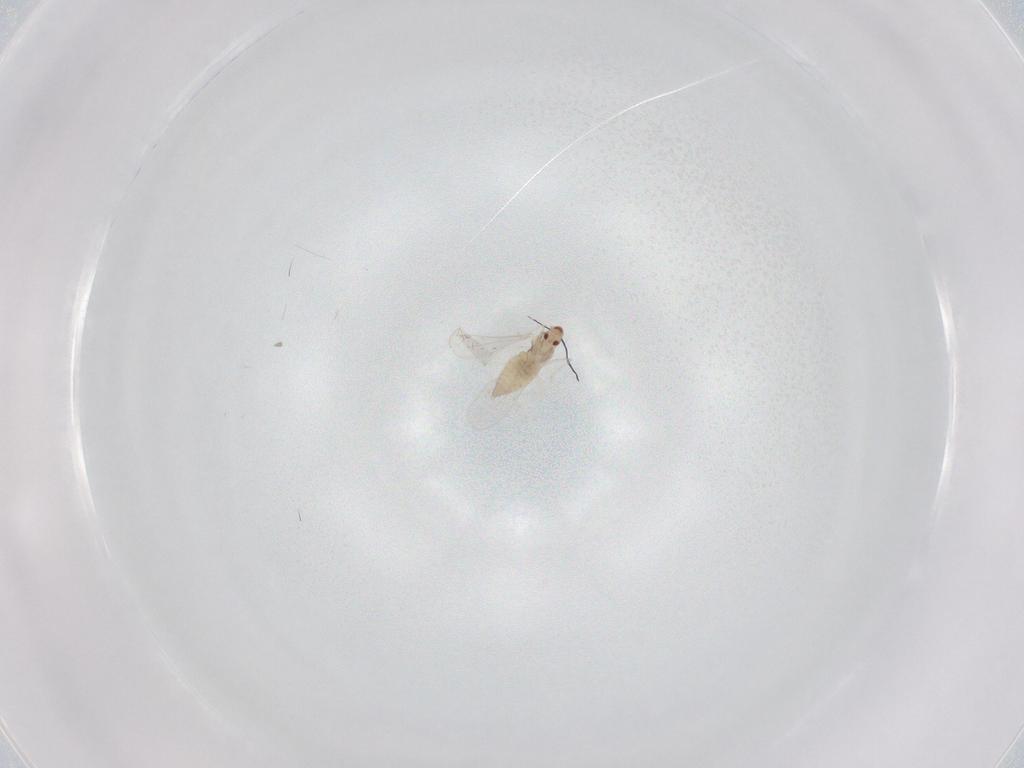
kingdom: Animalia
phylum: Arthropoda
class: Insecta
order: Diptera
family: Cecidomyiidae
